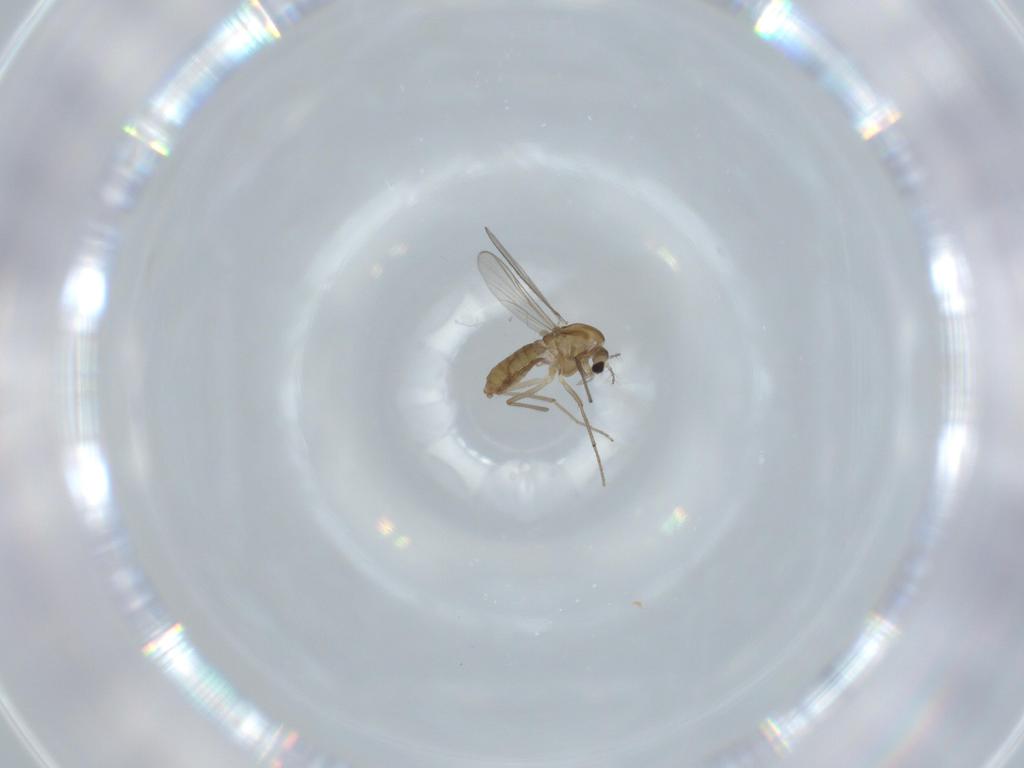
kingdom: Animalia
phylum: Arthropoda
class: Insecta
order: Diptera
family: Chironomidae
